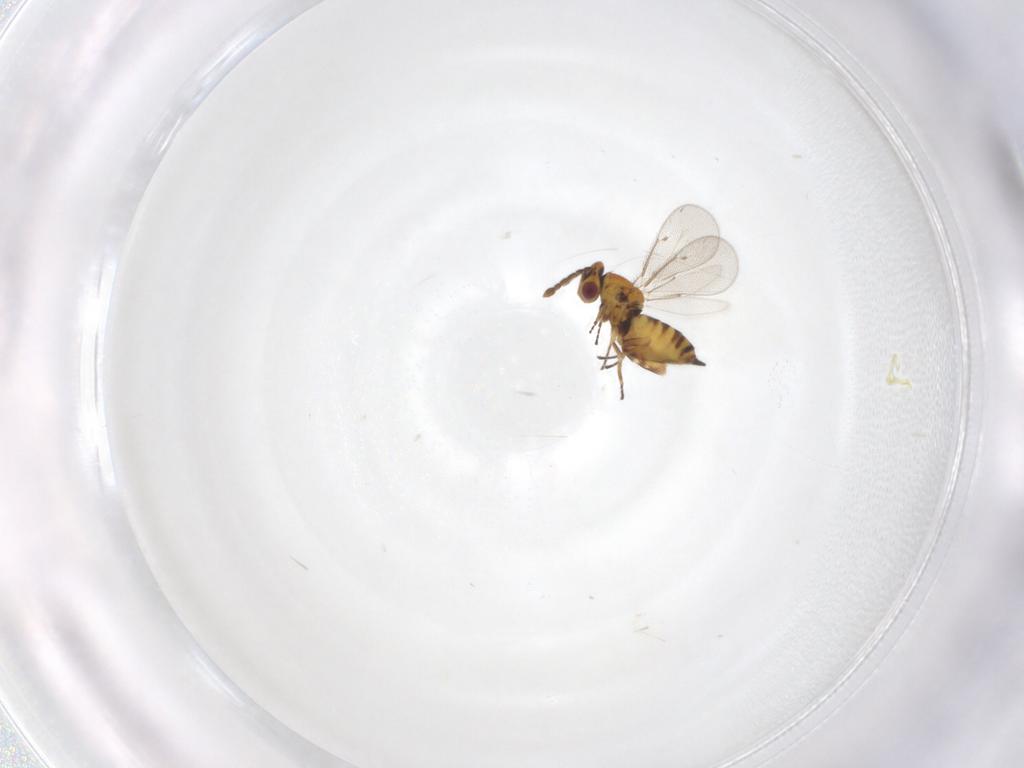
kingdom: Animalia
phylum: Arthropoda
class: Insecta
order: Hymenoptera
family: Eulophidae
